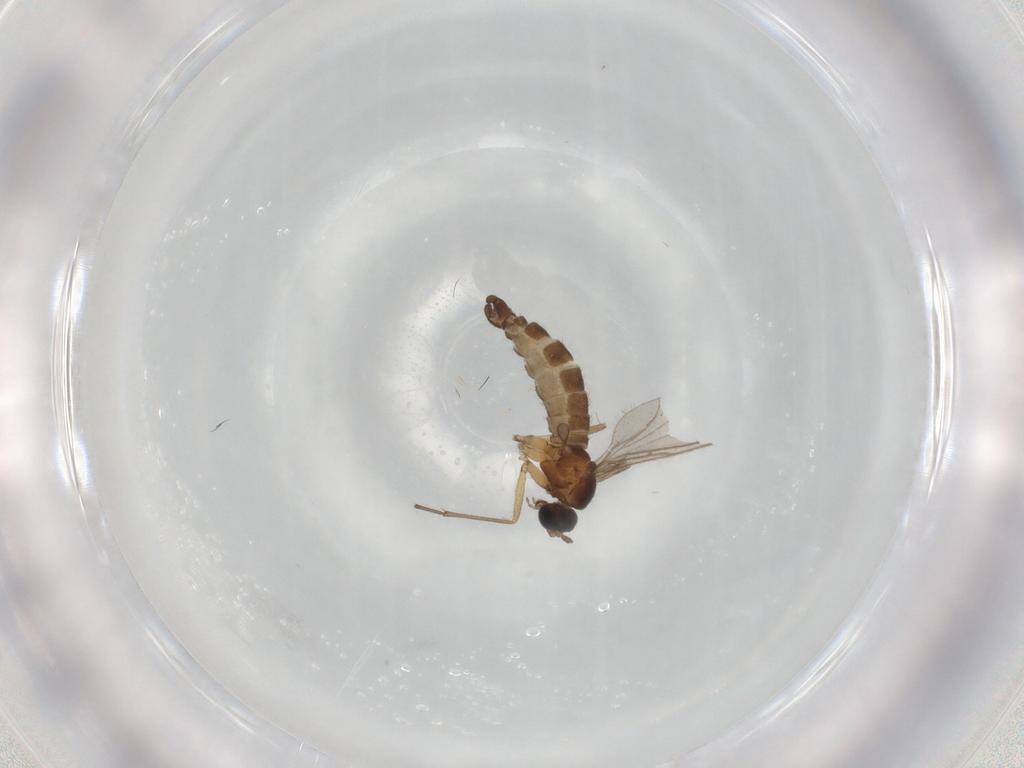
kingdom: Animalia
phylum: Arthropoda
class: Insecta
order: Diptera
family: Sciaridae
